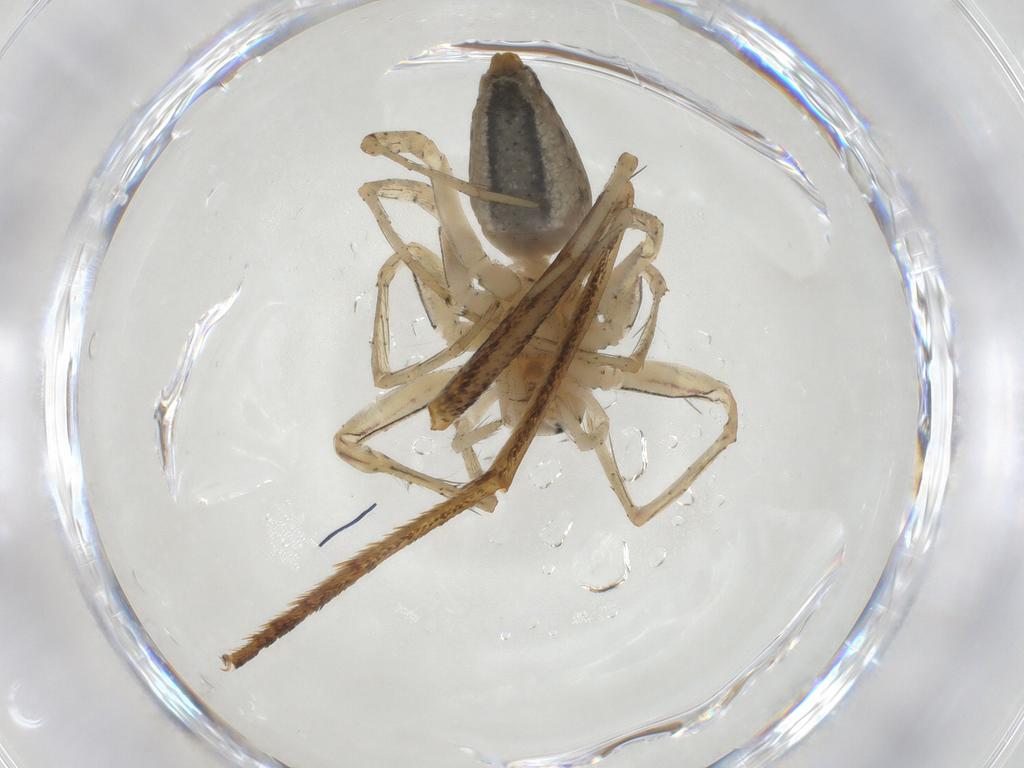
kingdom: Animalia
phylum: Arthropoda
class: Arachnida
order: Araneae
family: Oxyopidae
